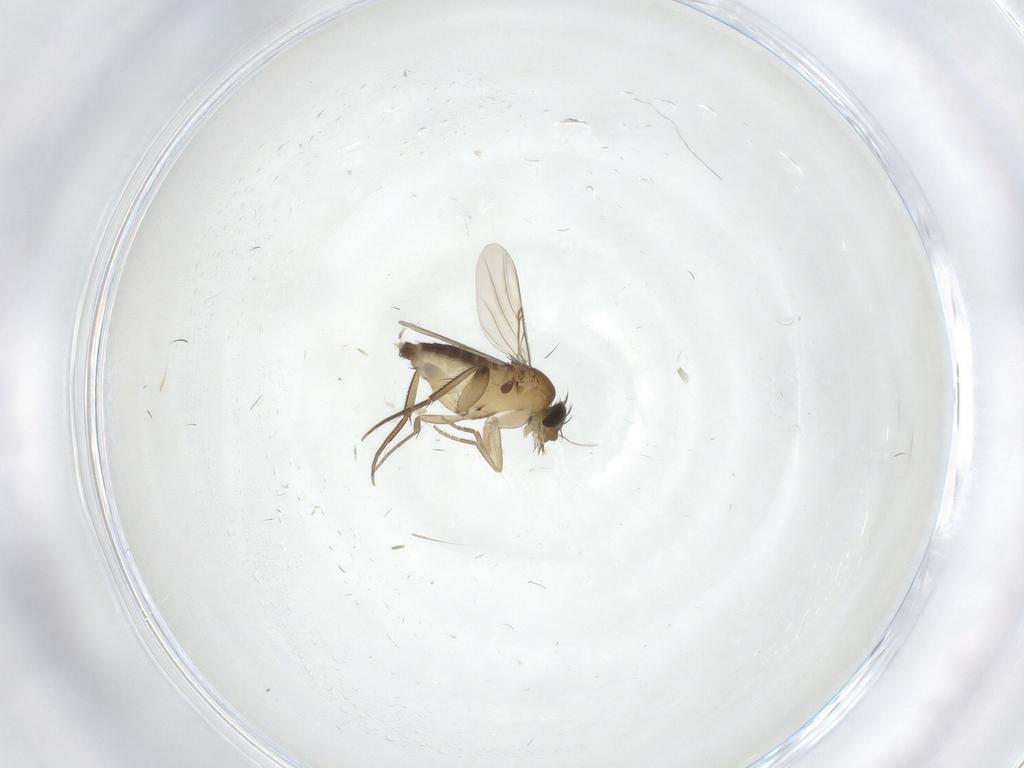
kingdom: Animalia
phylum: Arthropoda
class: Insecta
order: Diptera
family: Phoridae
